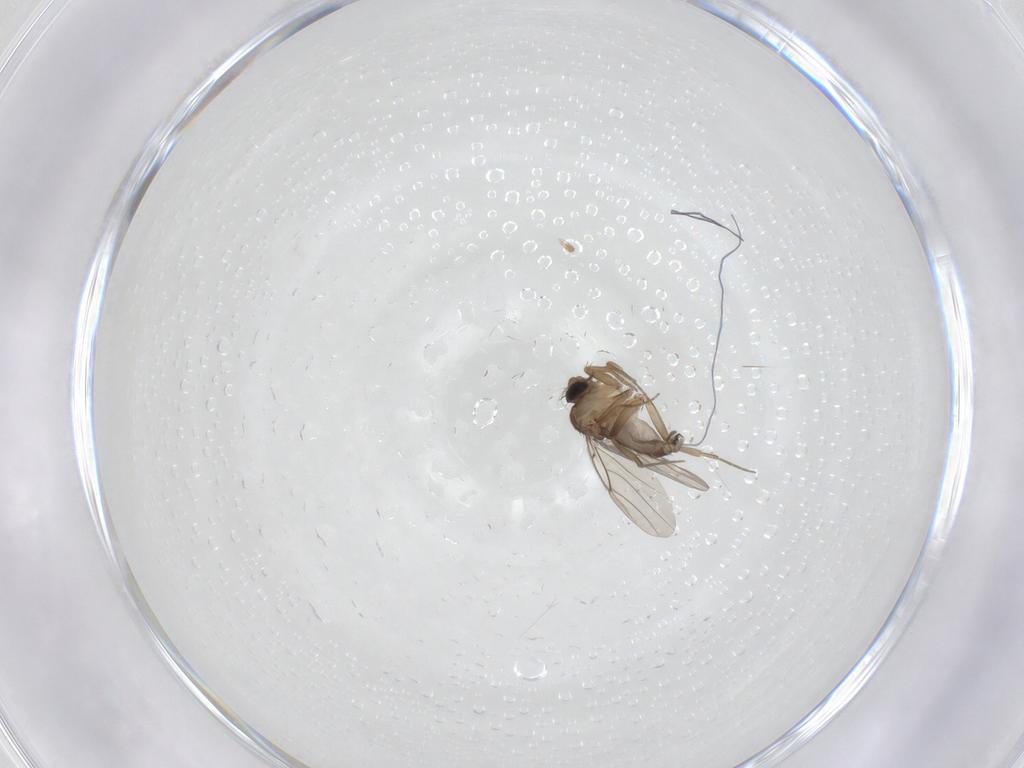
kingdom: Animalia
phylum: Arthropoda
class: Insecta
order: Diptera
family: Phoridae
